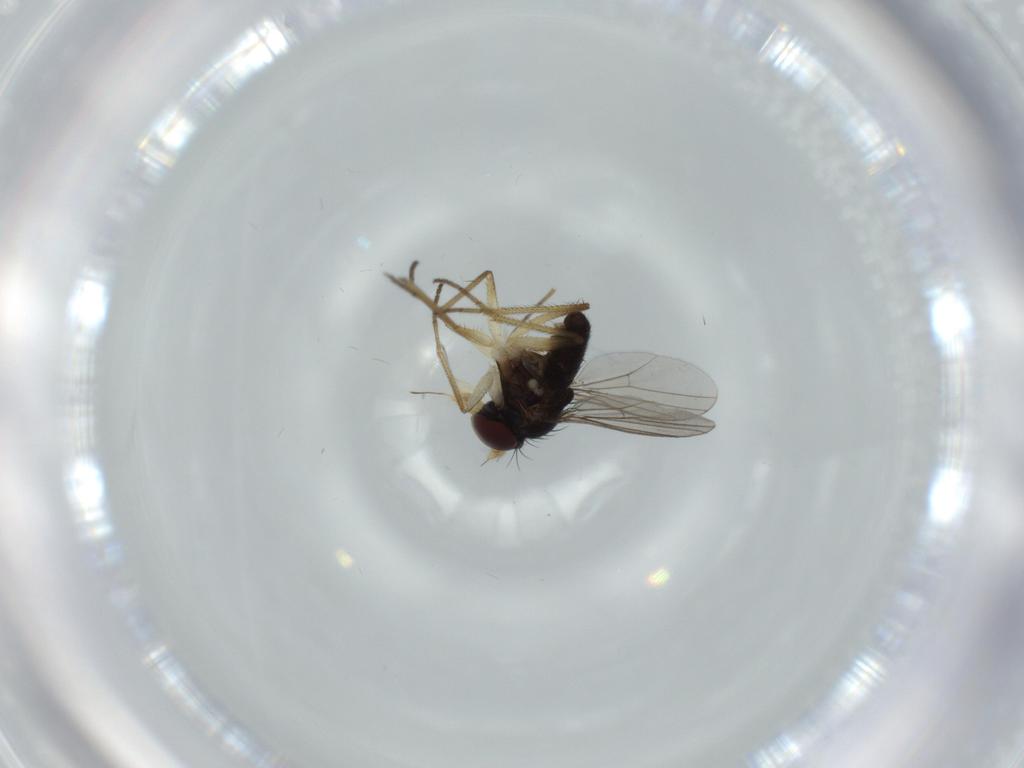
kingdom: Animalia
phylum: Arthropoda
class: Insecta
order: Diptera
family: Dolichopodidae
